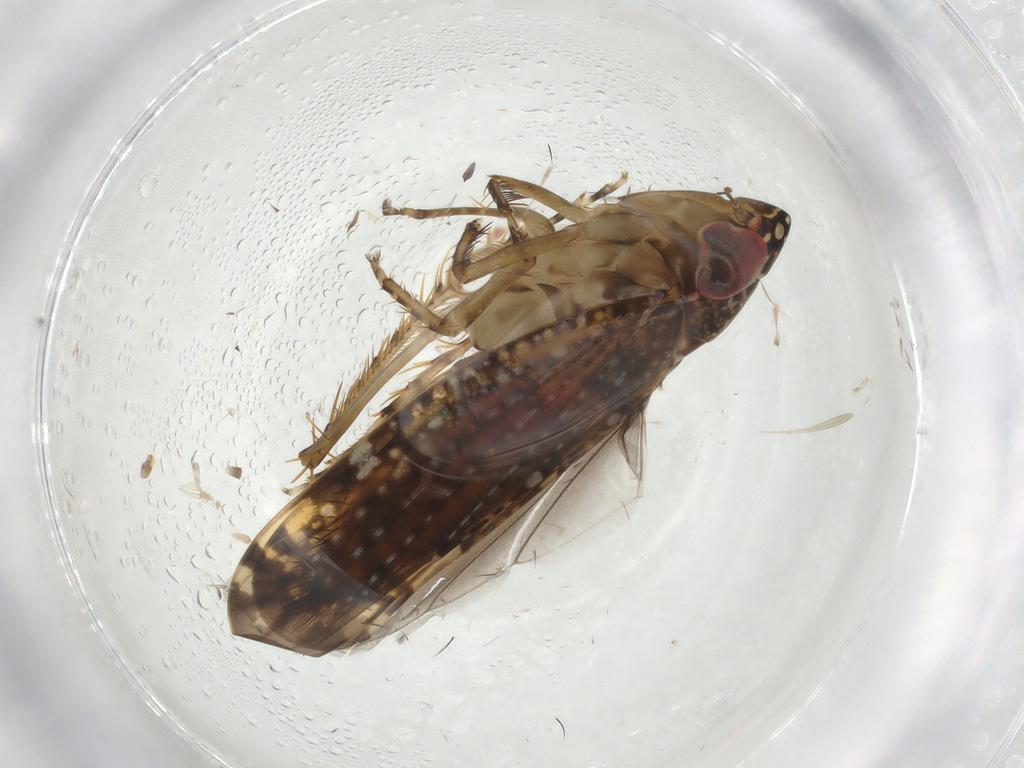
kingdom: Animalia
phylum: Arthropoda
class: Insecta
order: Hemiptera
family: Cicadellidae
